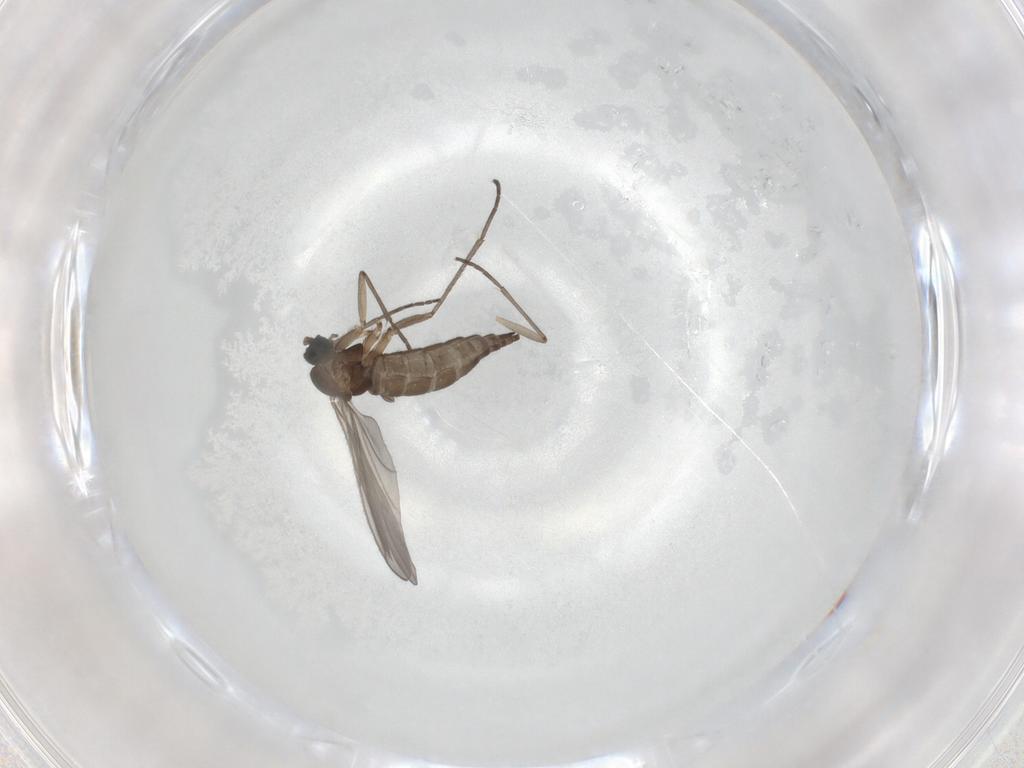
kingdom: Animalia
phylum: Arthropoda
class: Insecta
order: Diptera
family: Sciaridae
